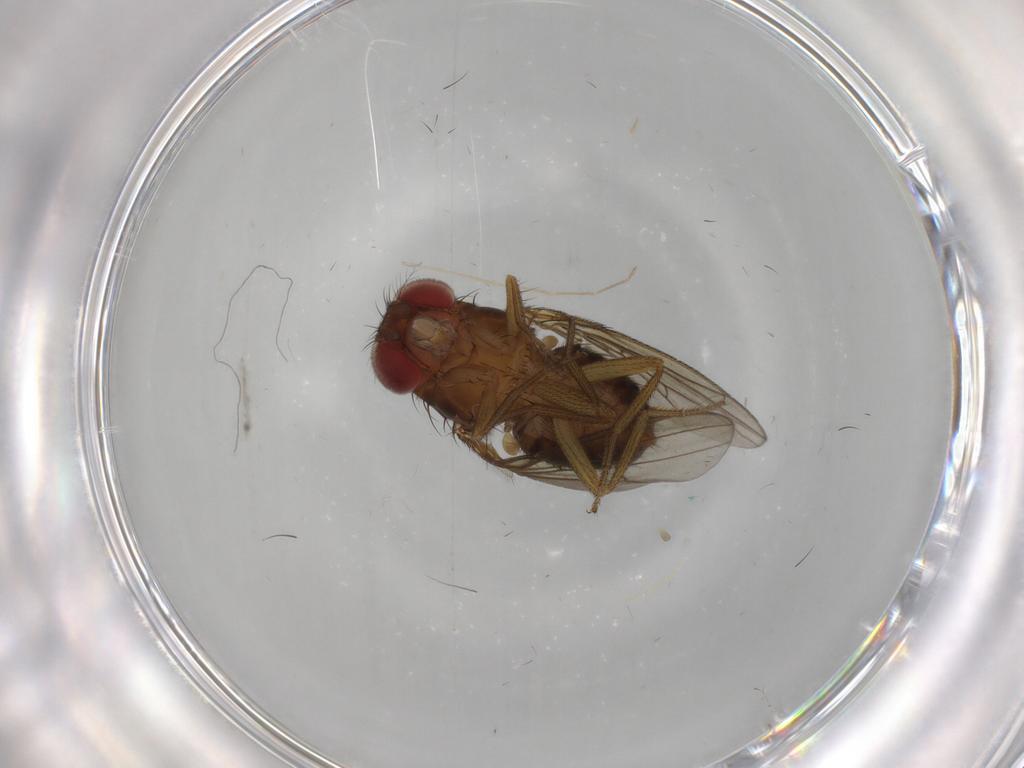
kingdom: Animalia
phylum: Arthropoda
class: Insecta
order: Diptera
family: Drosophilidae
